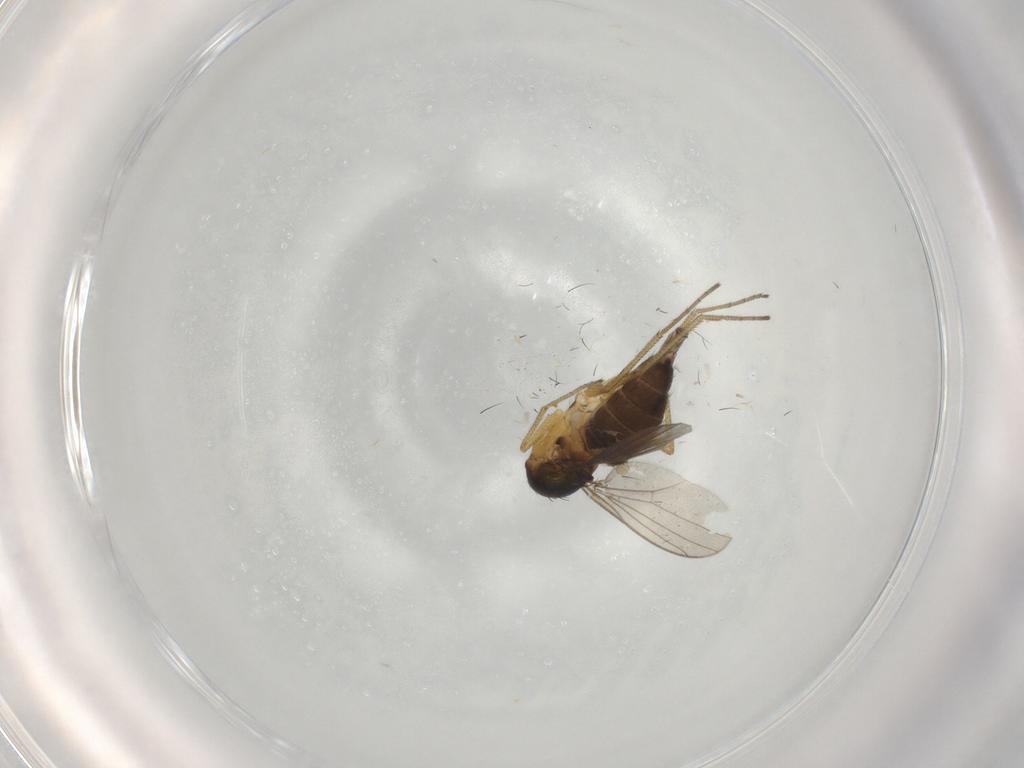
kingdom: Animalia
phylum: Arthropoda
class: Insecta
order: Diptera
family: Dolichopodidae
